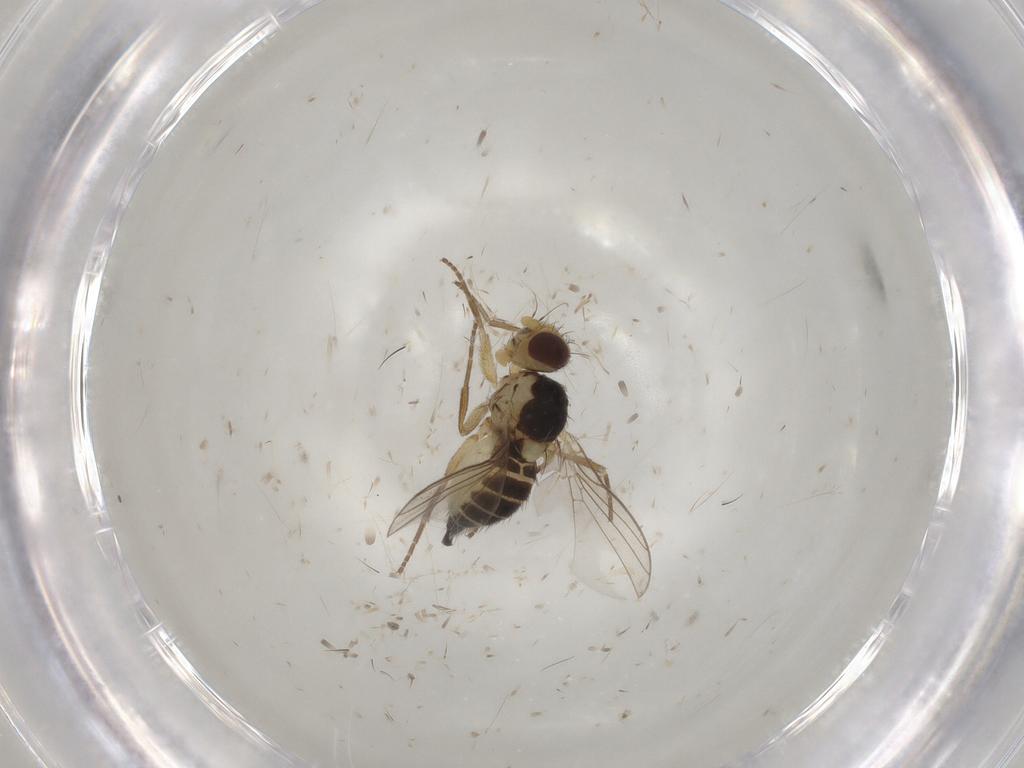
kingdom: Animalia
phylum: Arthropoda
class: Insecta
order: Diptera
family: Agromyzidae
